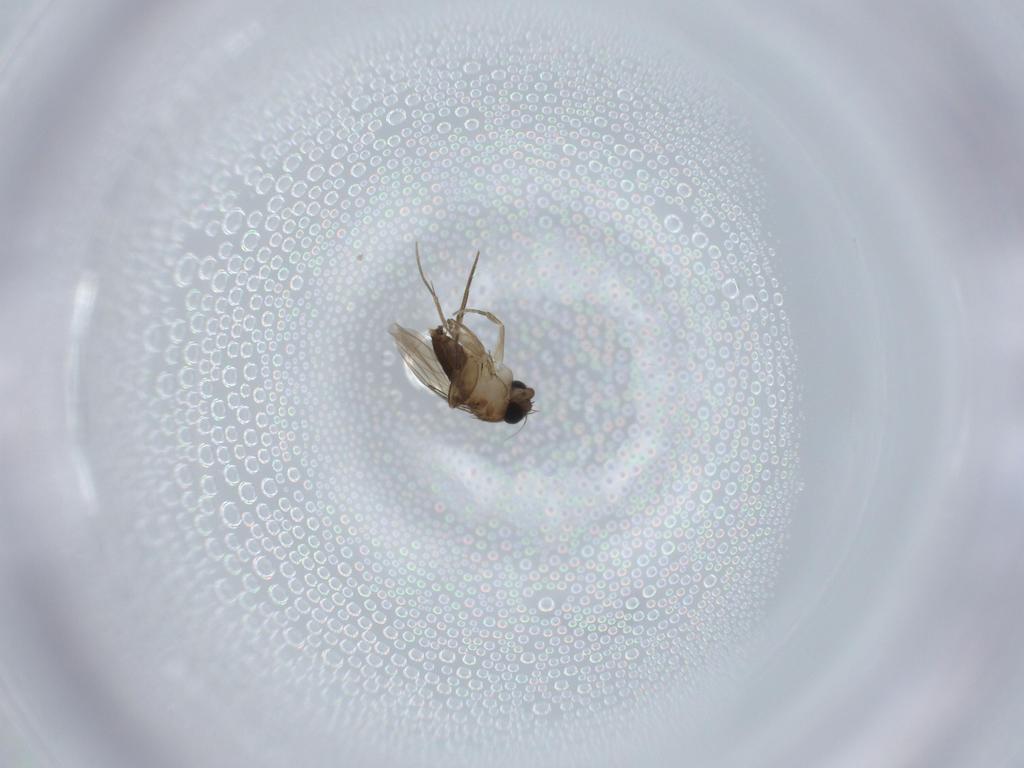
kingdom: Animalia
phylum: Arthropoda
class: Insecta
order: Diptera
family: Phoridae
